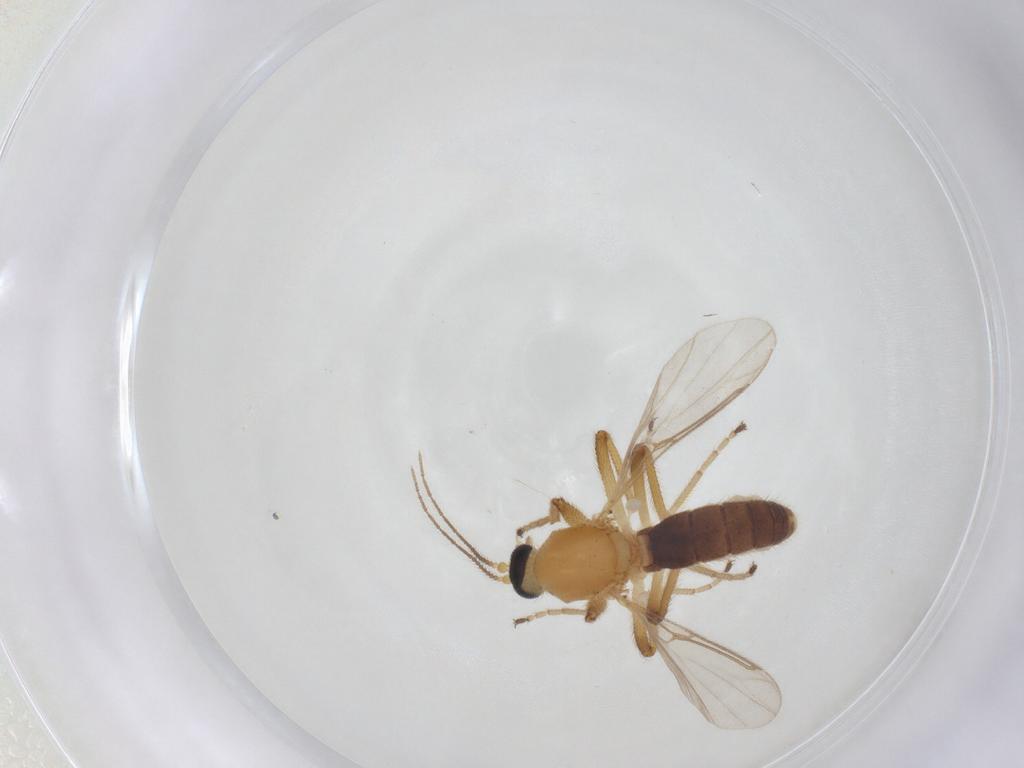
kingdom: Animalia
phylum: Arthropoda
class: Insecta
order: Diptera
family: Ceratopogonidae
